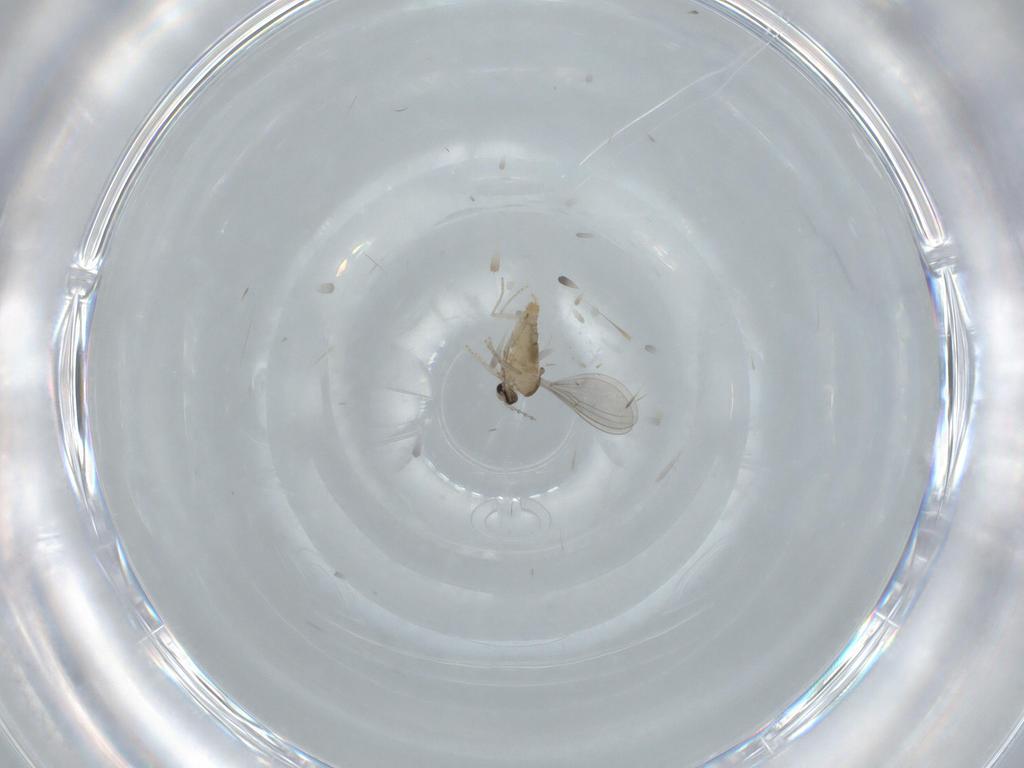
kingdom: Animalia
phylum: Arthropoda
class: Insecta
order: Diptera
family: Cecidomyiidae
